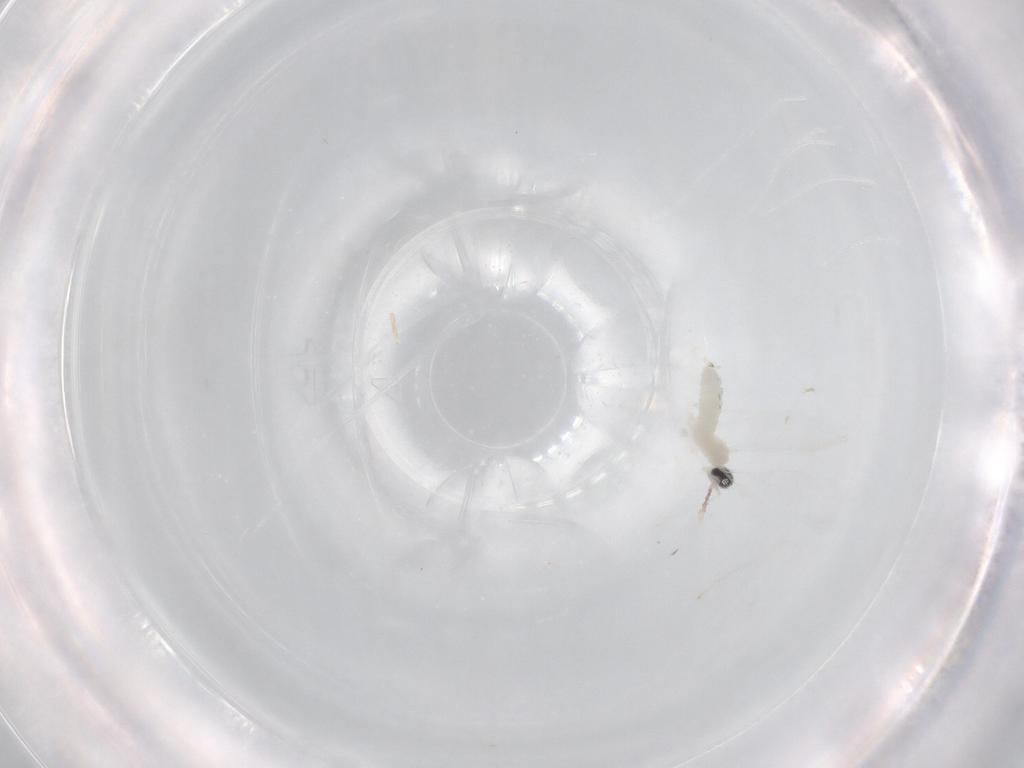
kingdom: Animalia
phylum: Arthropoda
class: Insecta
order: Diptera
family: Cecidomyiidae
